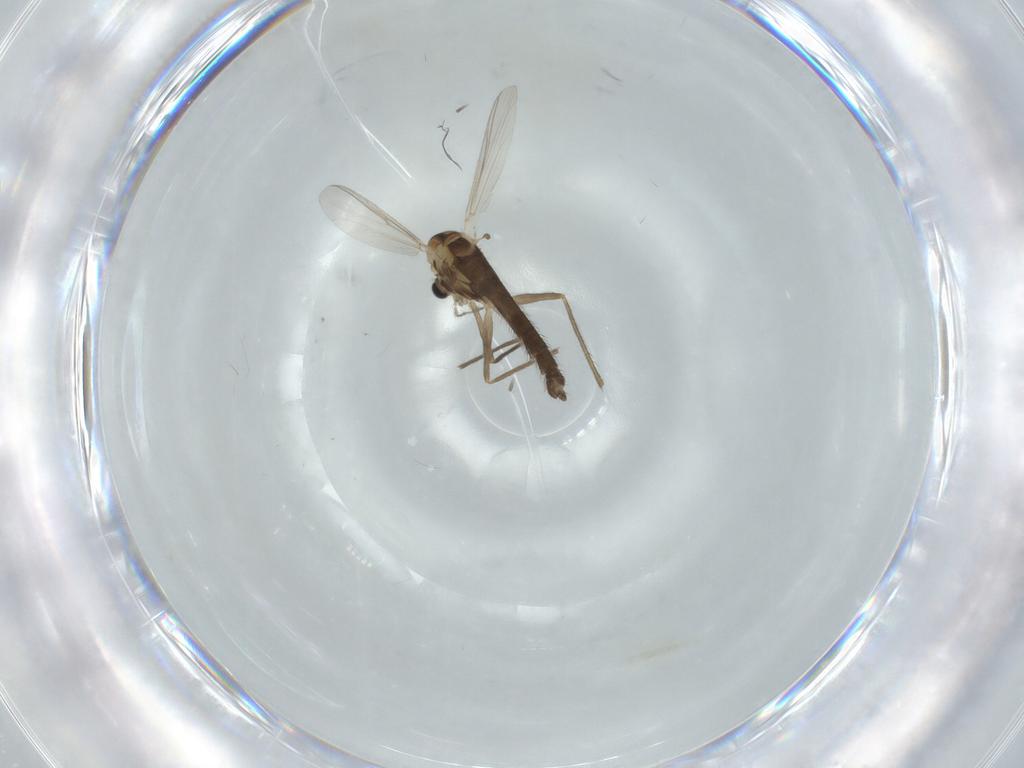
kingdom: Animalia
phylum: Arthropoda
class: Insecta
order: Diptera
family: Chironomidae
